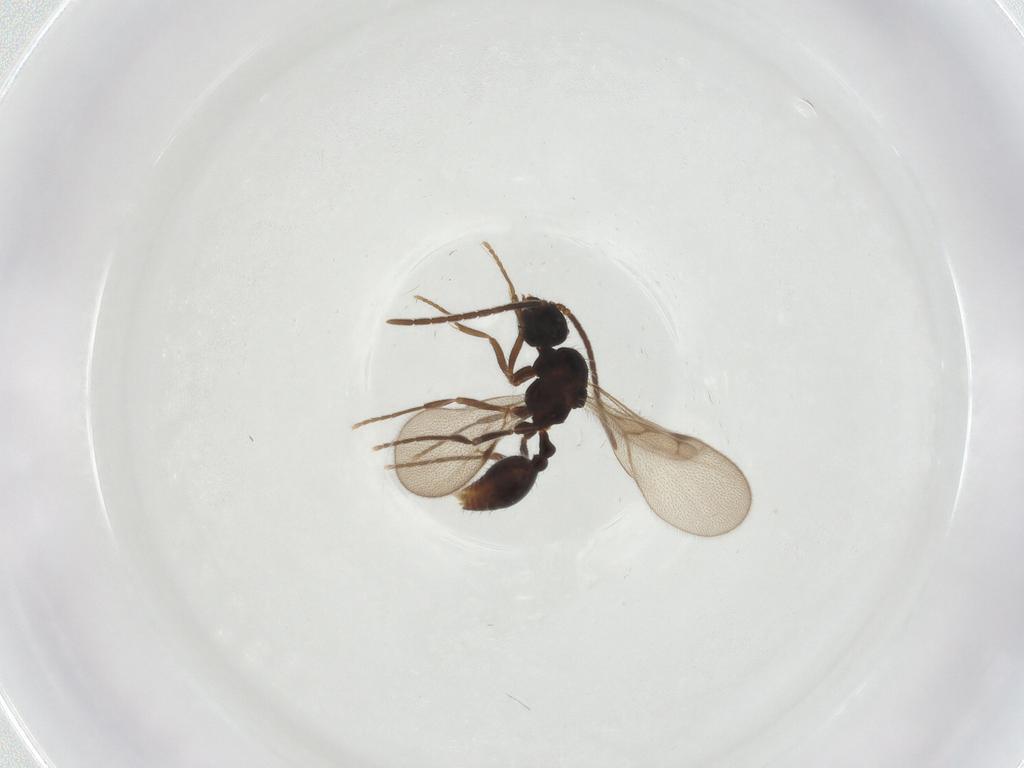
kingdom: Animalia
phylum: Arthropoda
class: Insecta
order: Hymenoptera
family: Formicidae
